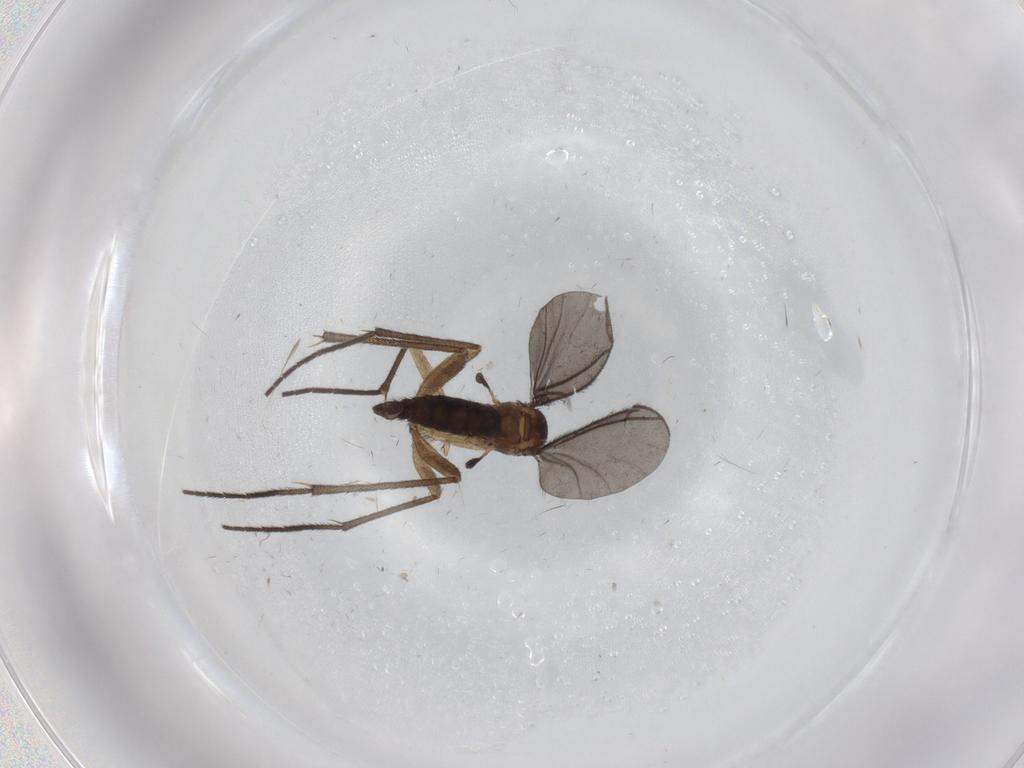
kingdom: Animalia
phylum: Arthropoda
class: Insecta
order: Diptera
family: Sciaridae
